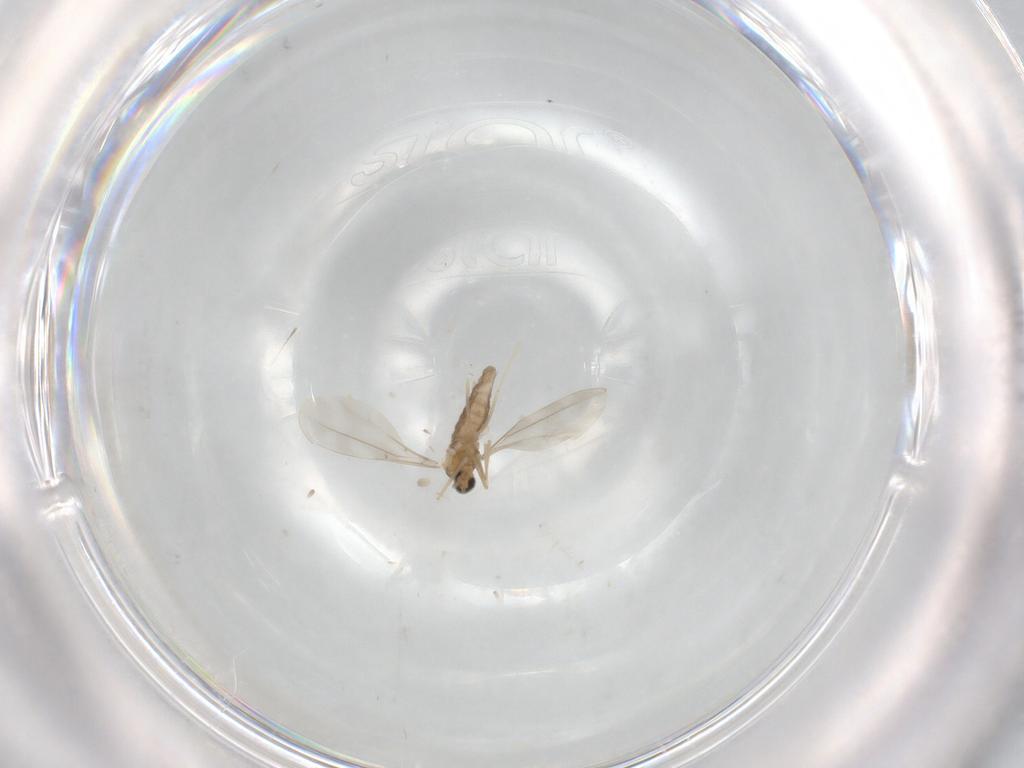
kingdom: Animalia
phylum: Arthropoda
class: Insecta
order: Diptera
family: Cecidomyiidae
